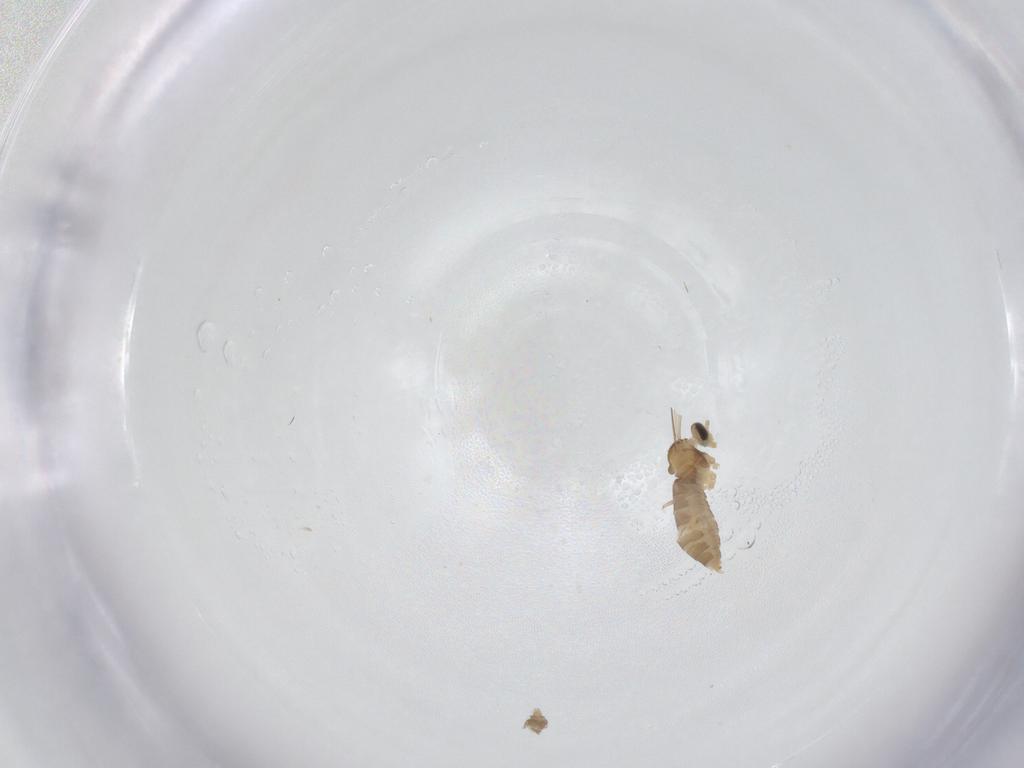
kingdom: Animalia
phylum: Arthropoda
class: Insecta
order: Diptera
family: Cecidomyiidae
